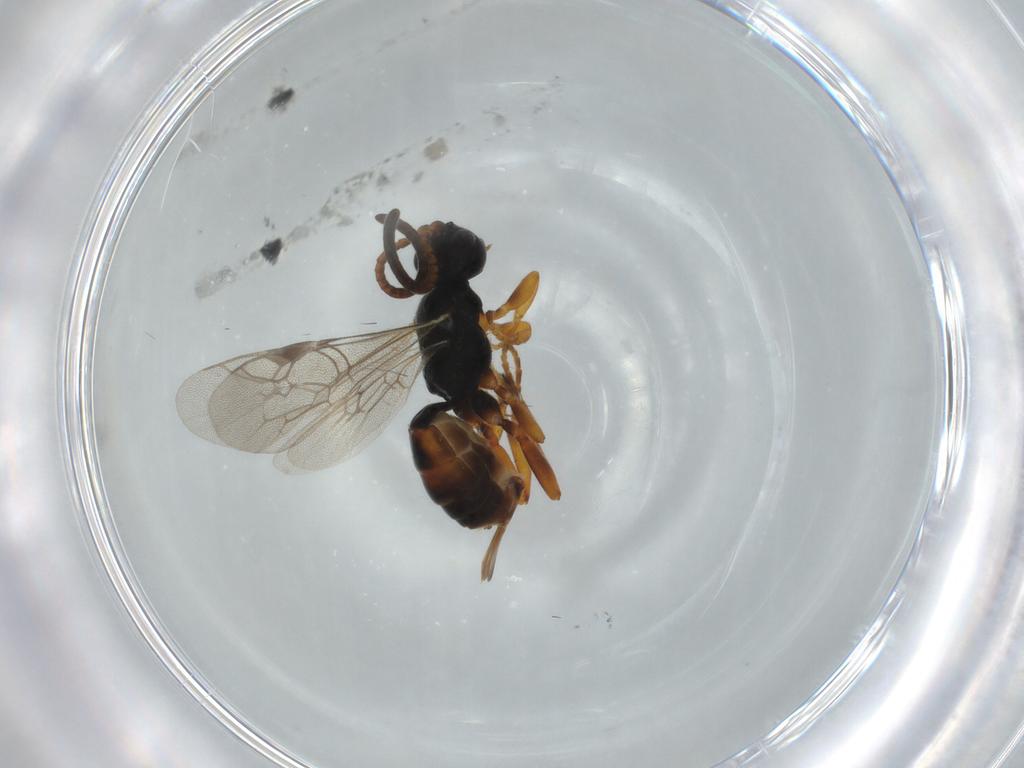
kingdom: Animalia
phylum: Arthropoda
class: Insecta
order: Hymenoptera
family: Ichneumonidae
